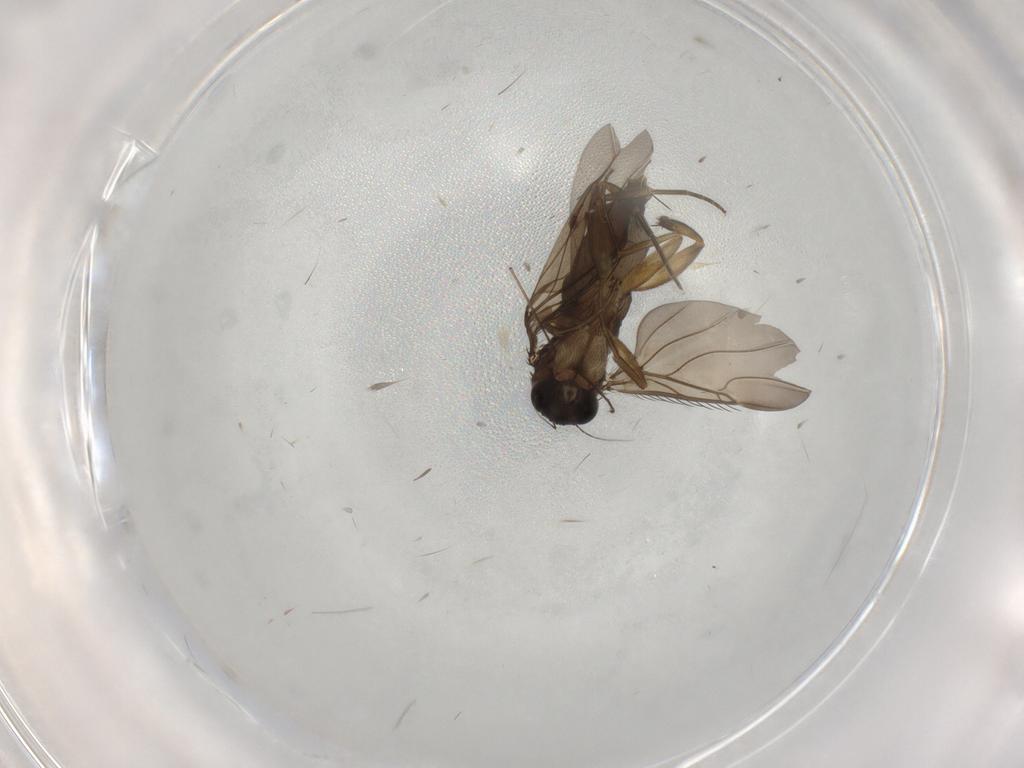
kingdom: Animalia
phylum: Arthropoda
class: Insecta
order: Diptera
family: Phoridae
